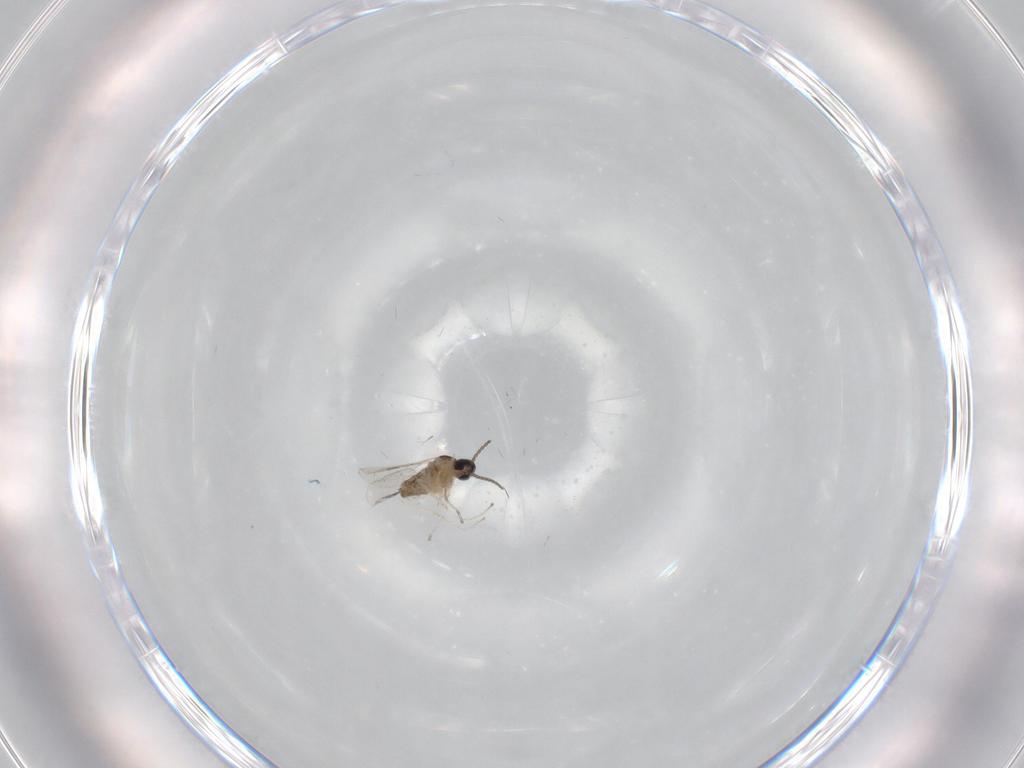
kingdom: Animalia
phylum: Arthropoda
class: Insecta
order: Diptera
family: Cecidomyiidae
